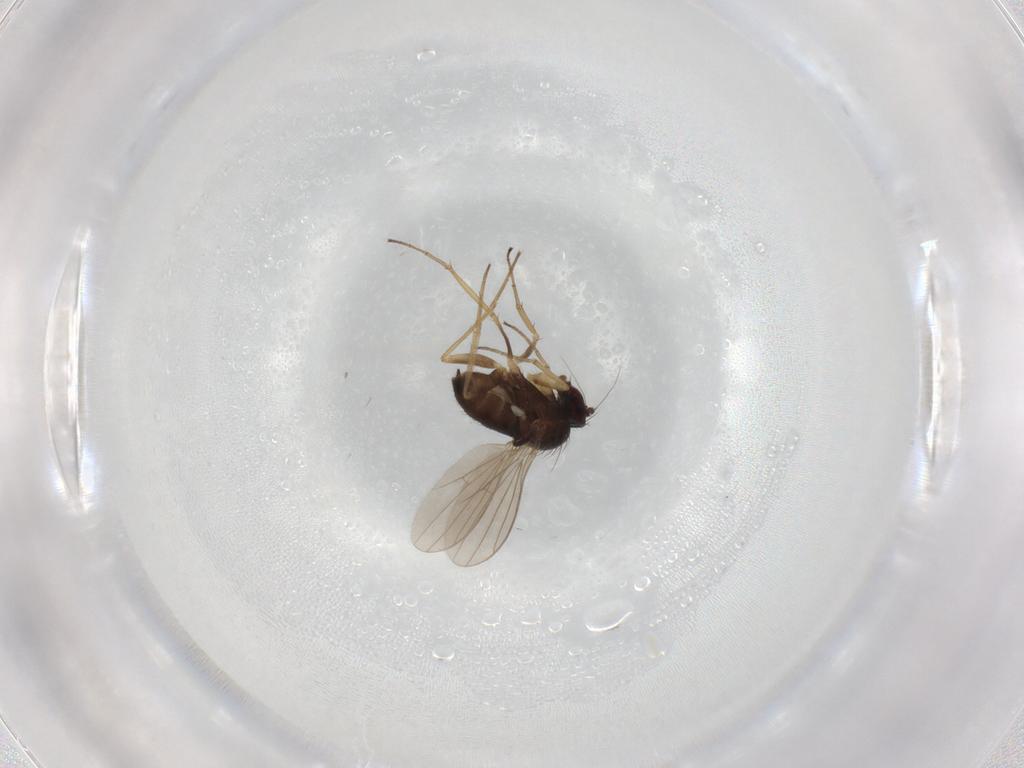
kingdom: Animalia
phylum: Arthropoda
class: Insecta
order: Diptera
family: Dolichopodidae
